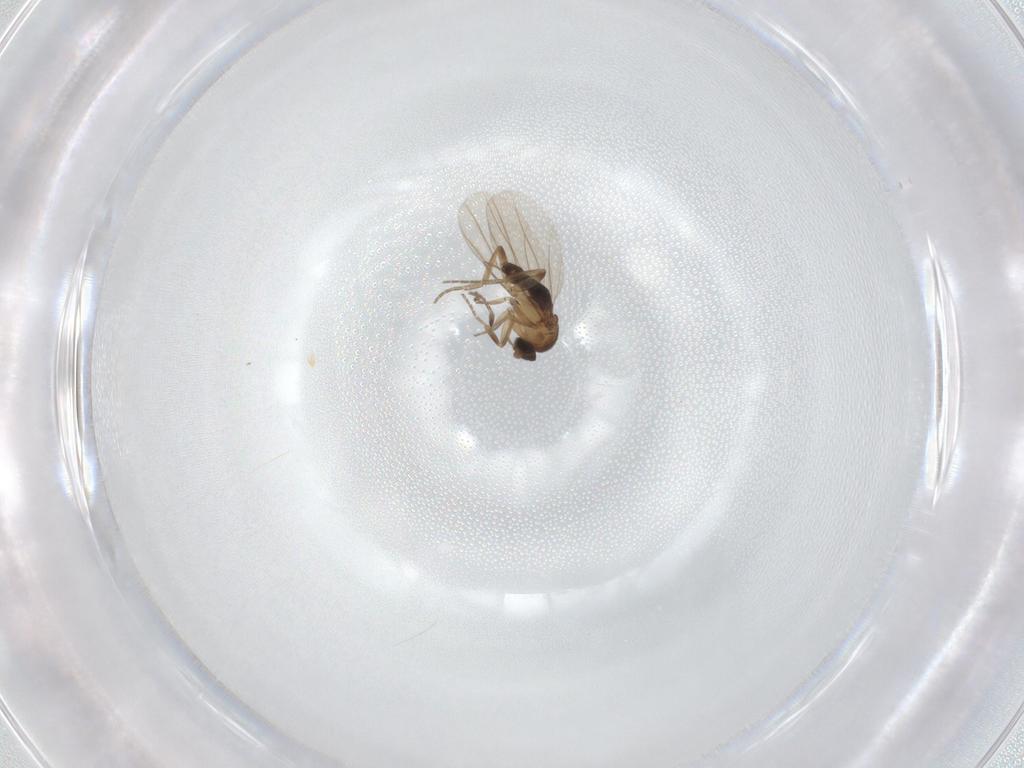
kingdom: Animalia
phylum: Arthropoda
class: Insecta
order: Diptera
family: Phoridae
